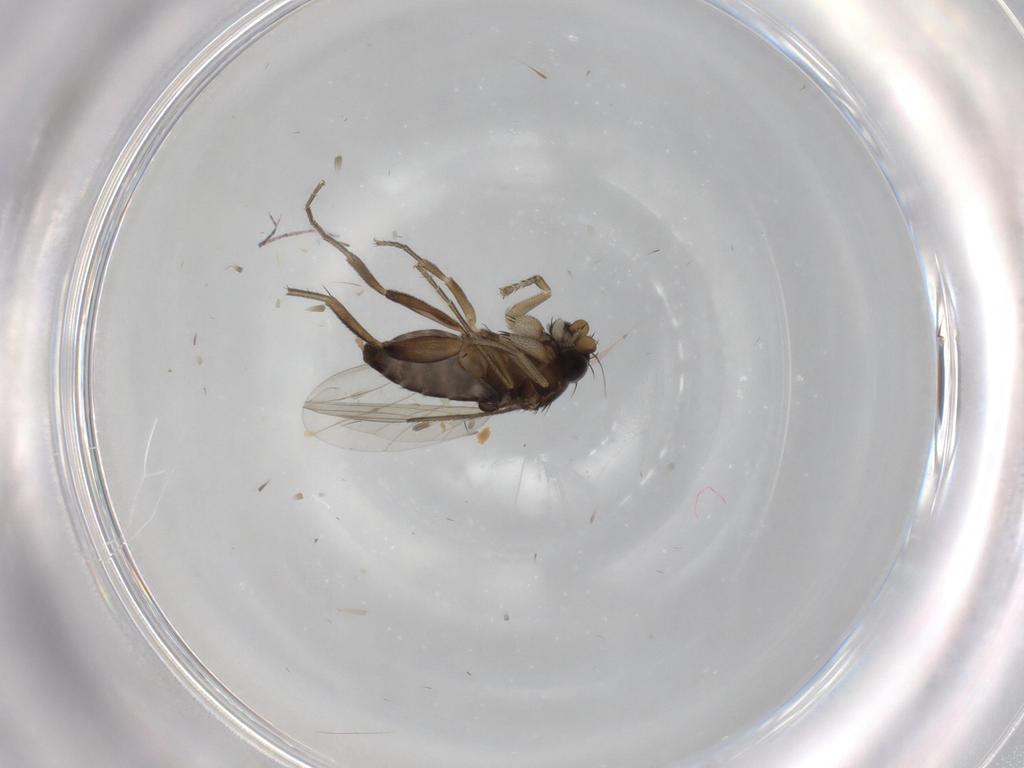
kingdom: Animalia
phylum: Arthropoda
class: Insecta
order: Diptera
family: Phoridae
